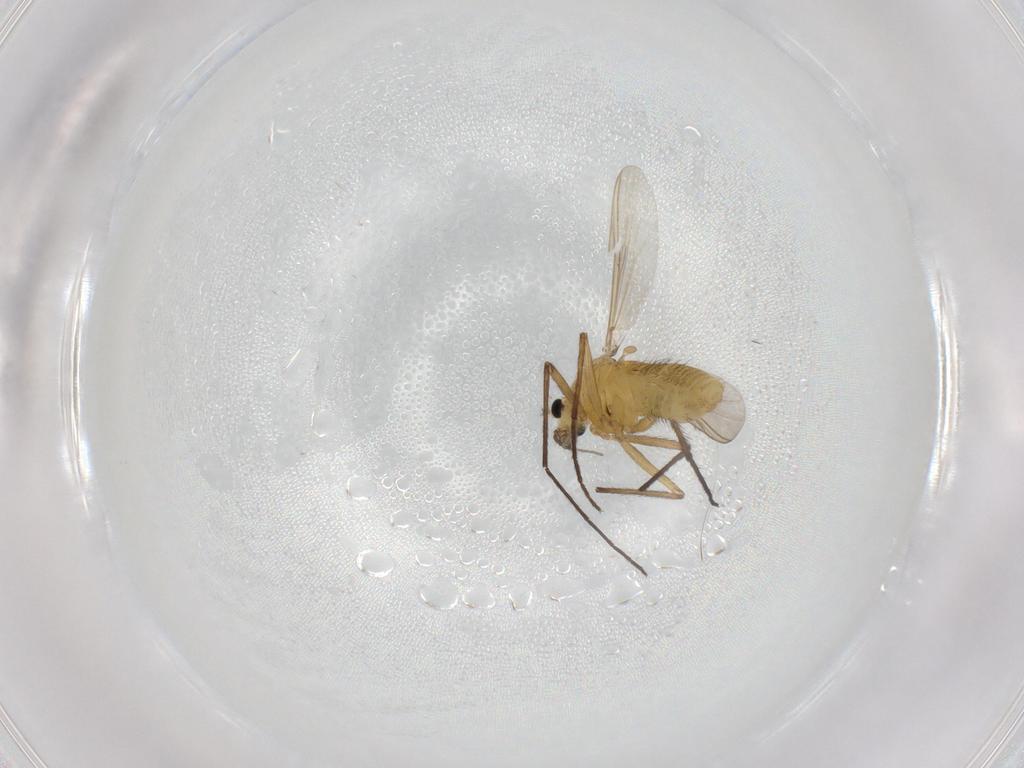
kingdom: Animalia
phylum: Arthropoda
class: Insecta
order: Diptera
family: Chironomidae
